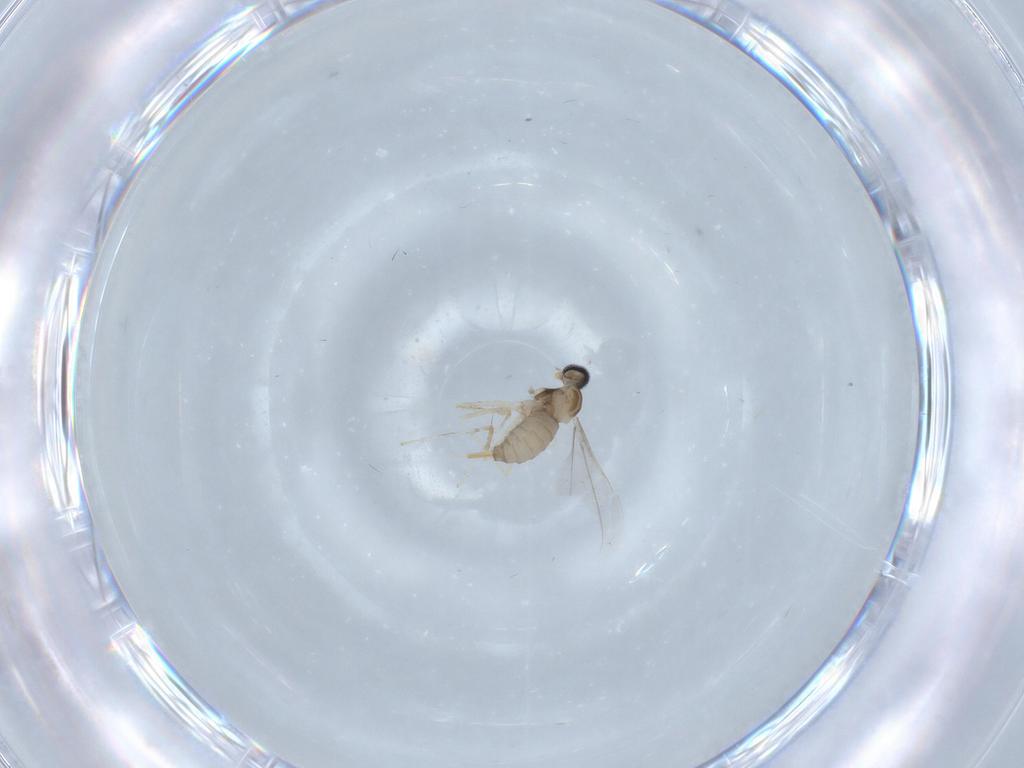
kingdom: Animalia
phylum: Arthropoda
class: Insecta
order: Diptera
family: Cecidomyiidae
